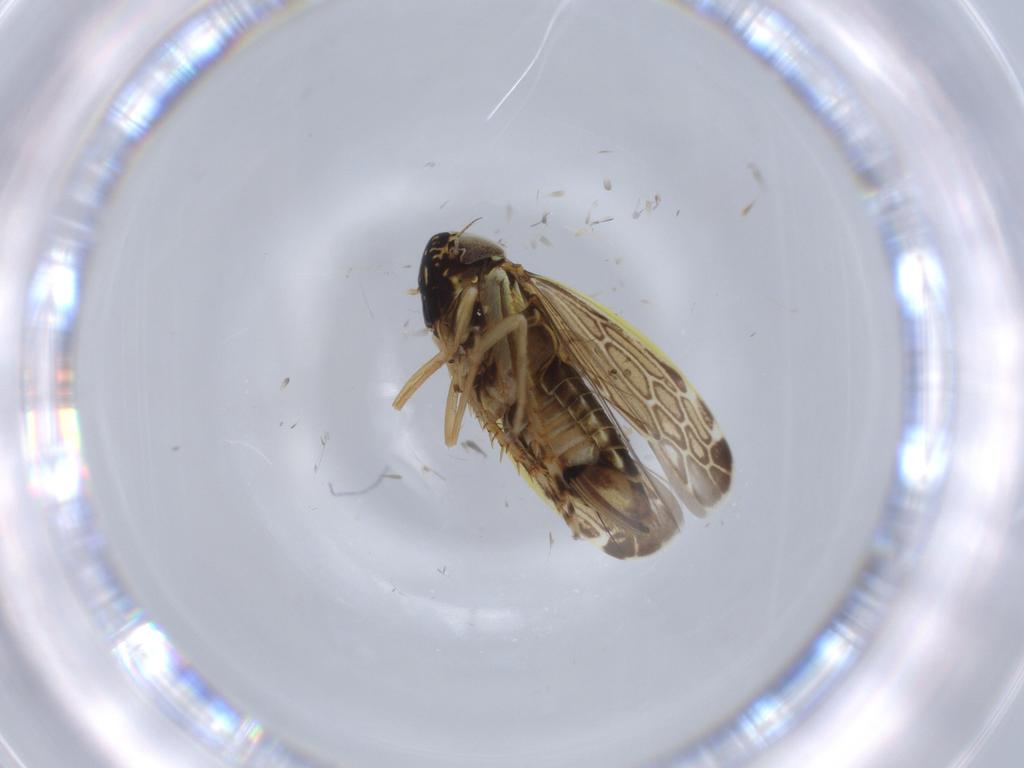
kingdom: Animalia
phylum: Arthropoda
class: Insecta
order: Hemiptera
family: Cicadellidae
